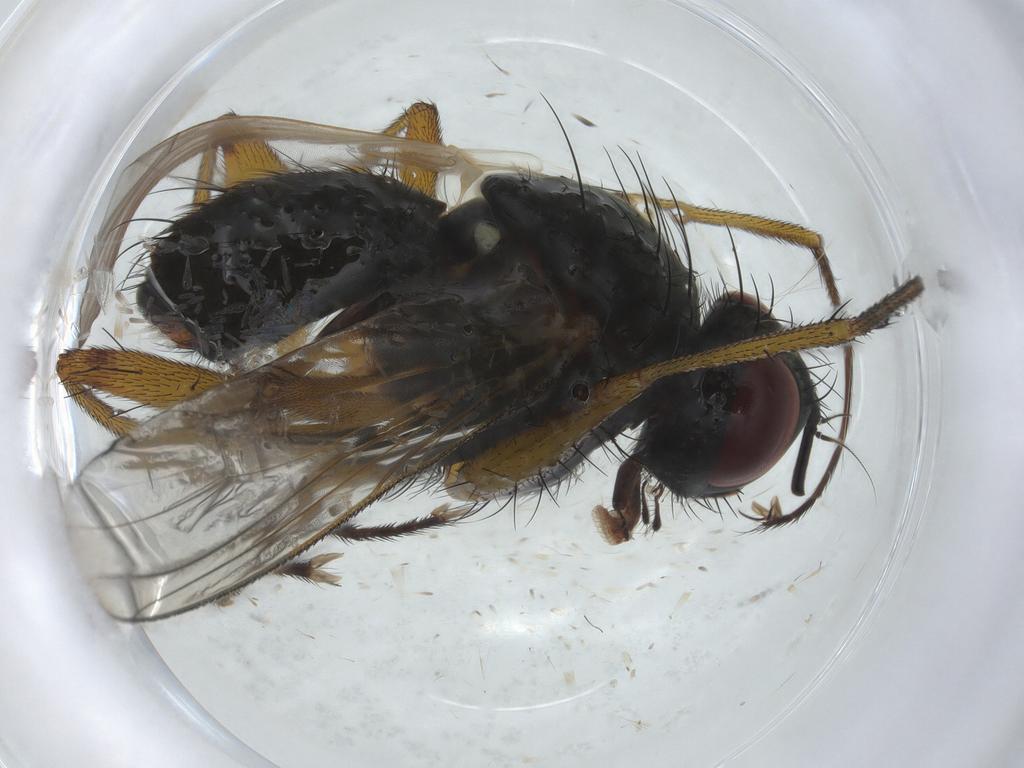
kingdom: Animalia
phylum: Arthropoda
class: Insecta
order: Diptera
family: Muscidae
